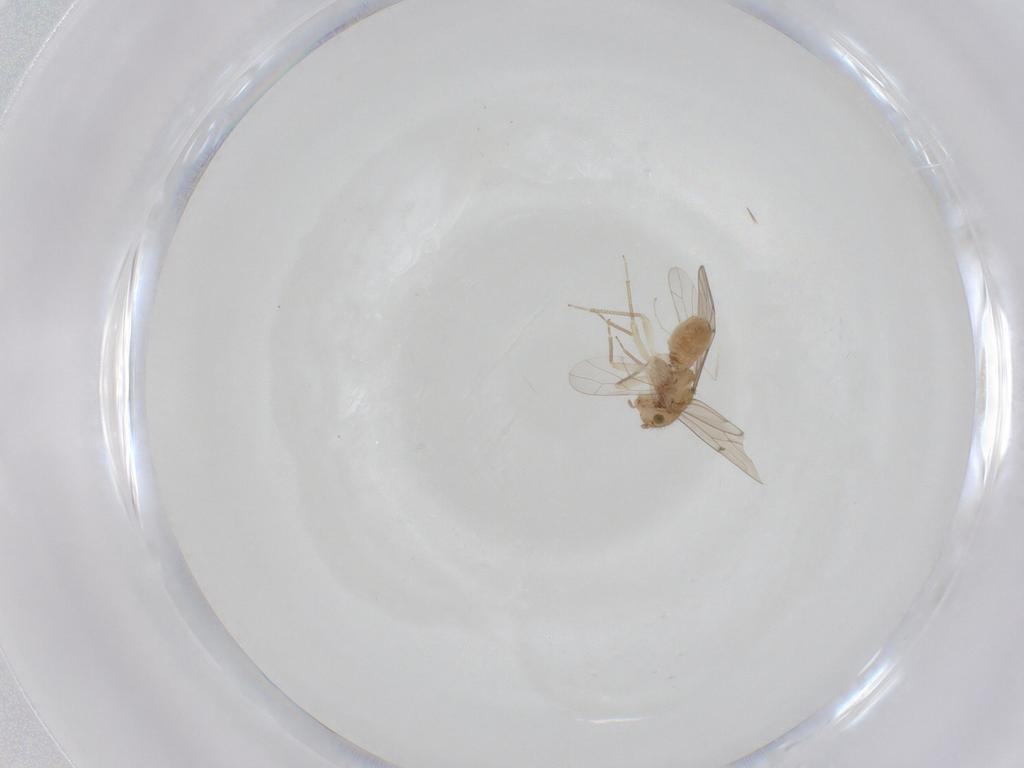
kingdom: Animalia
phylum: Arthropoda
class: Insecta
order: Psocodea
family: Ectopsocidae
